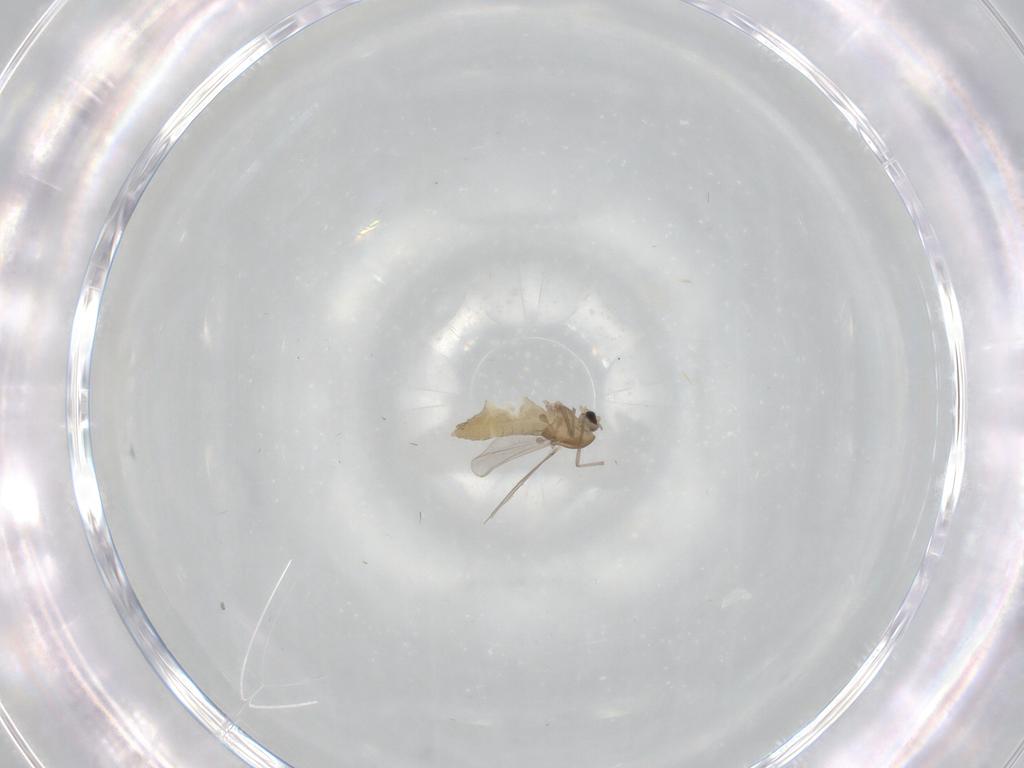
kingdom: Animalia
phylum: Arthropoda
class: Insecta
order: Diptera
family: Chironomidae
